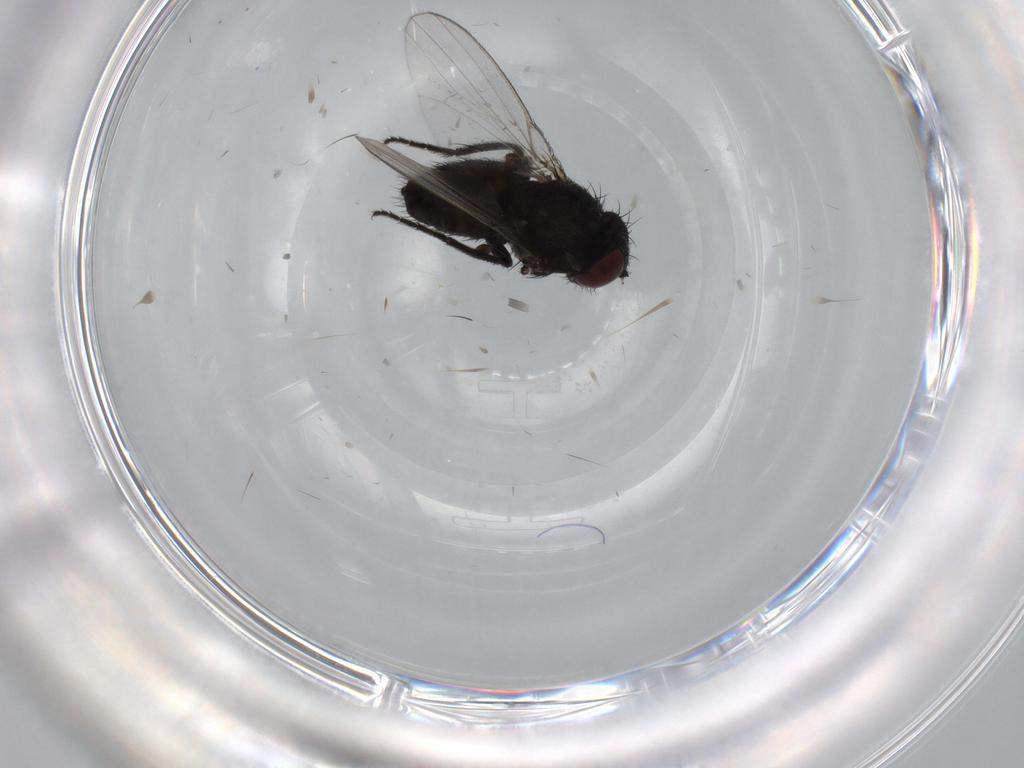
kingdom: Animalia
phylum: Arthropoda
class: Insecta
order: Diptera
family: Milichiidae
